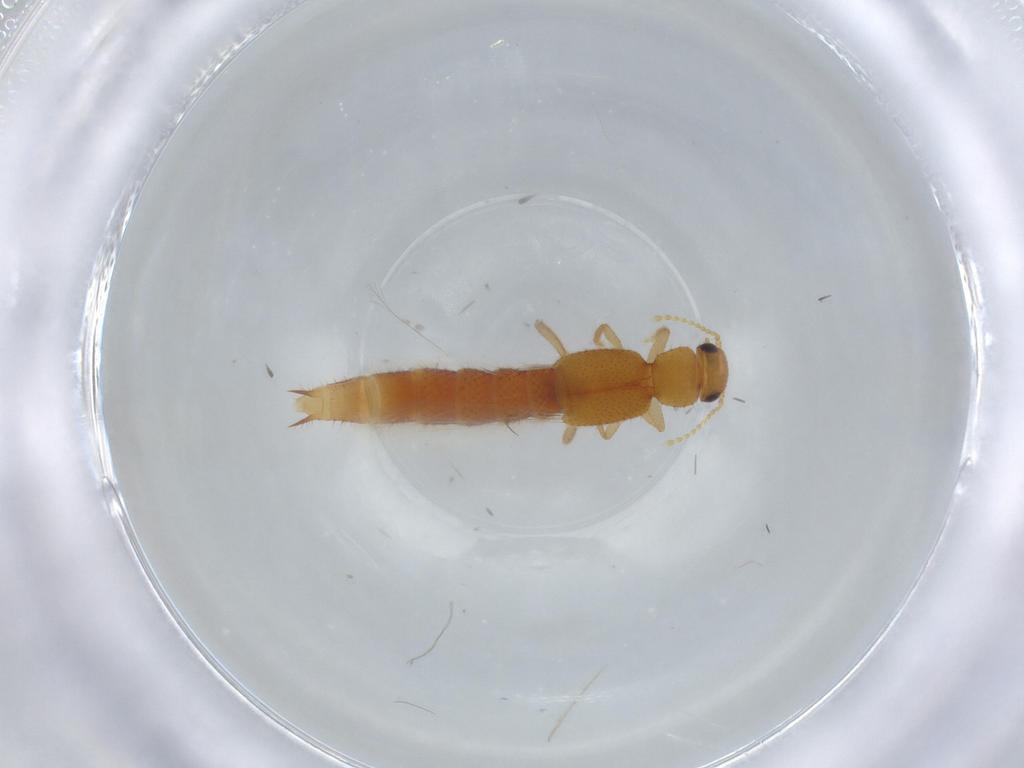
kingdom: Animalia
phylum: Arthropoda
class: Insecta
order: Coleoptera
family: Staphylinidae
